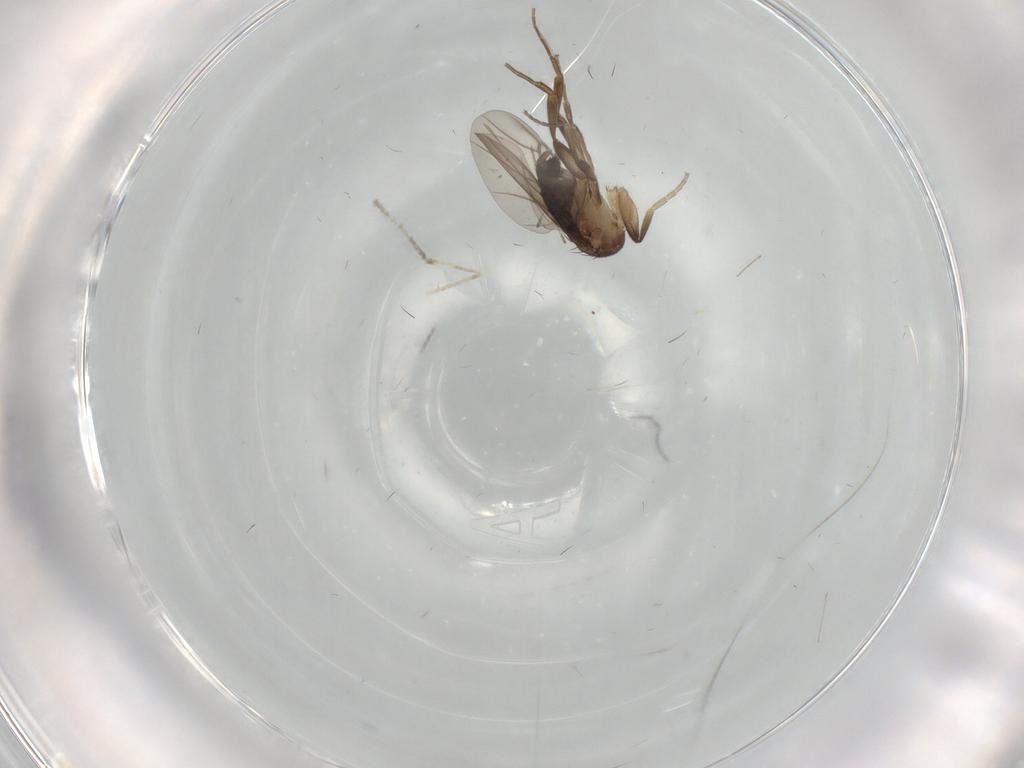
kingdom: Animalia
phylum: Arthropoda
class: Insecta
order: Diptera
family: Phoridae
